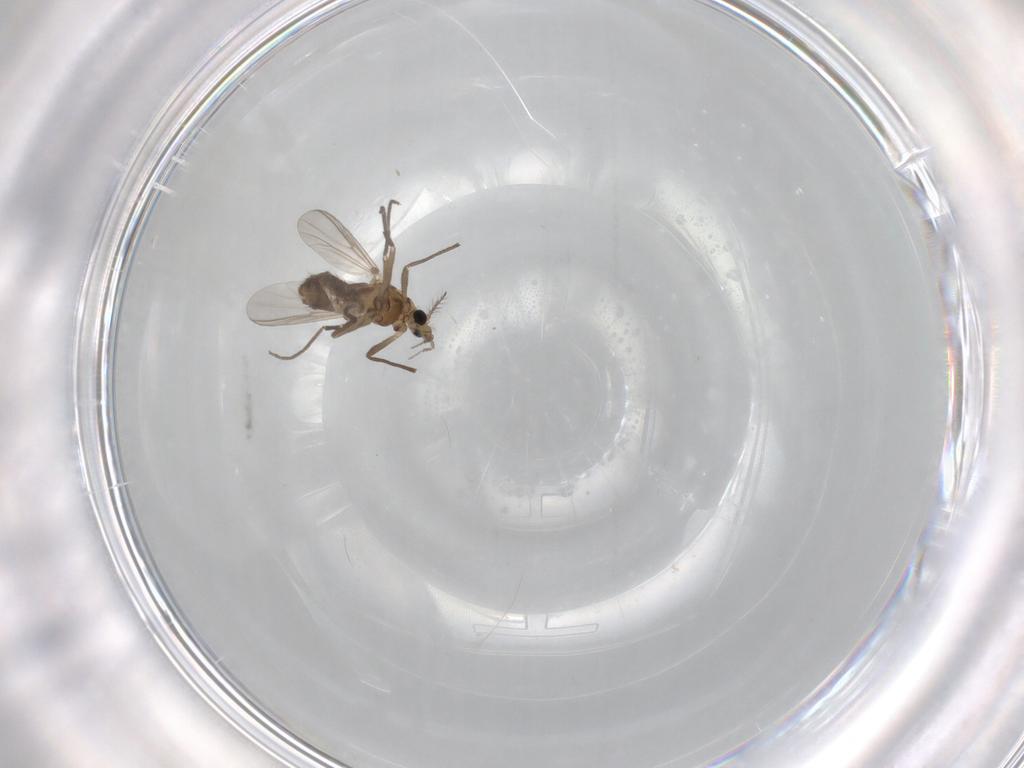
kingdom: Animalia
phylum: Arthropoda
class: Insecta
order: Diptera
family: Chironomidae
